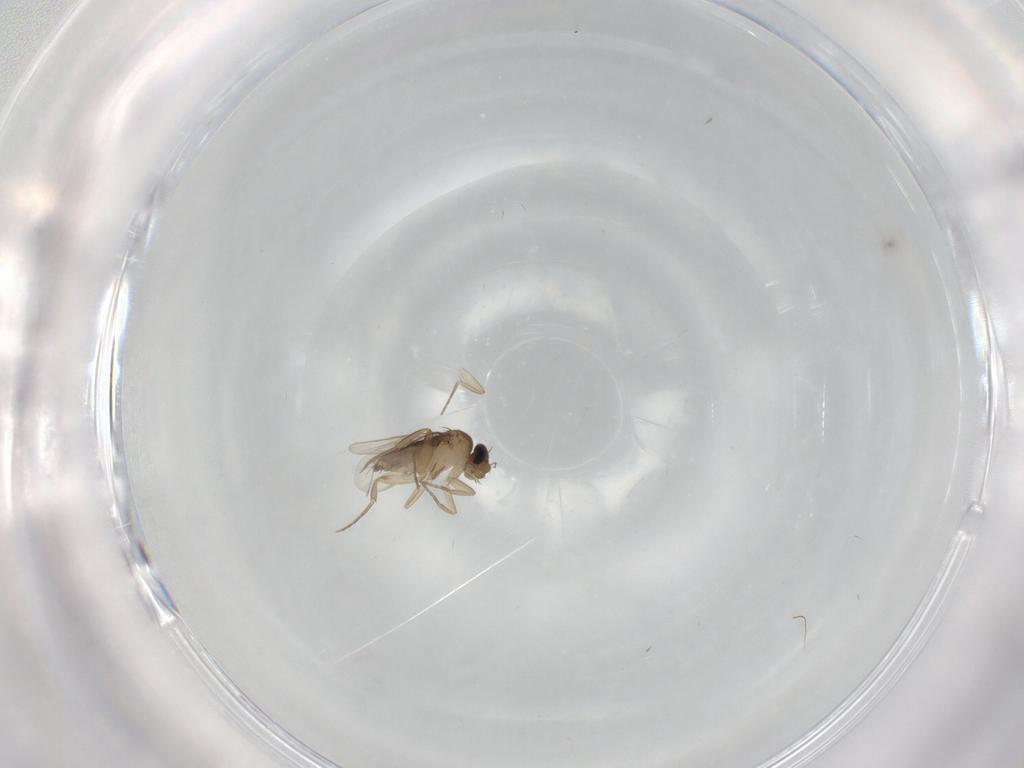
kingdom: Animalia
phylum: Arthropoda
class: Insecta
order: Diptera
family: Phoridae
